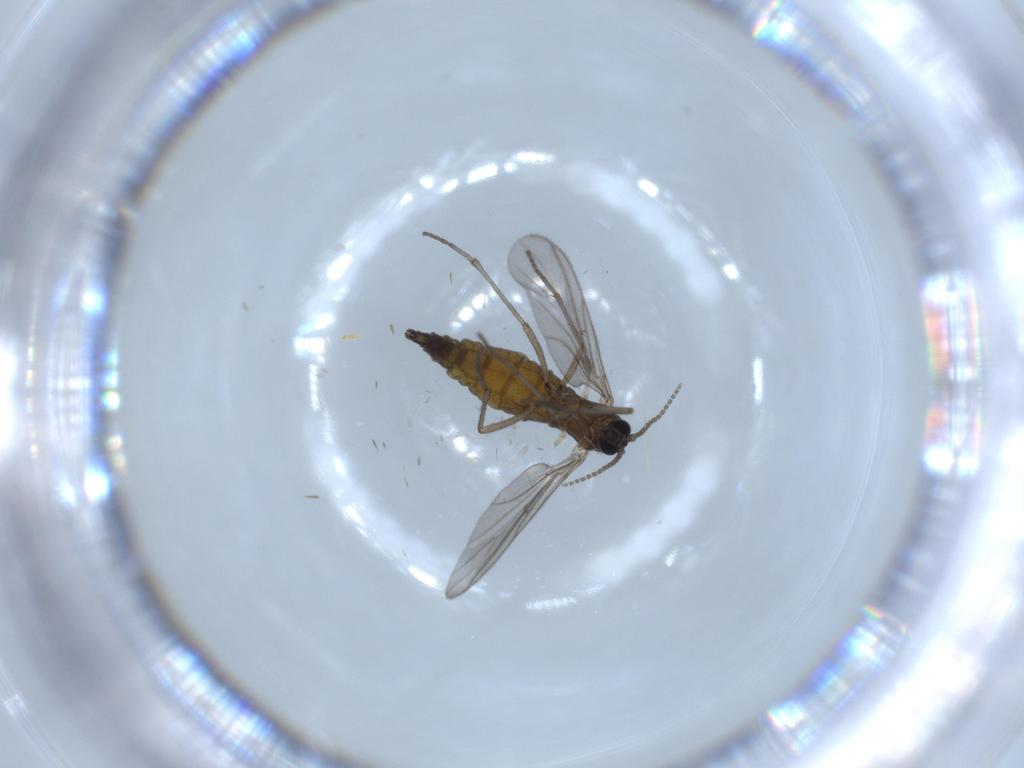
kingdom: Animalia
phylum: Arthropoda
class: Insecta
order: Diptera
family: Sciaridae
